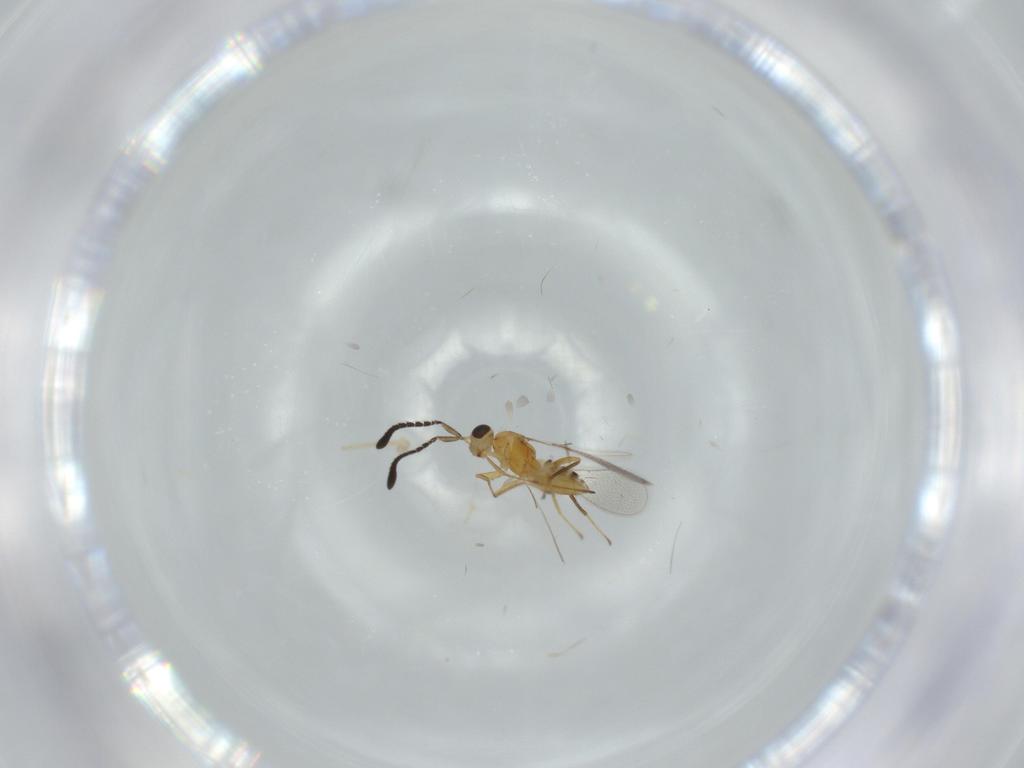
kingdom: Animalia
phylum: Arthropoda
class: Insecta
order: Hymenoptera
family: Mymaridae
